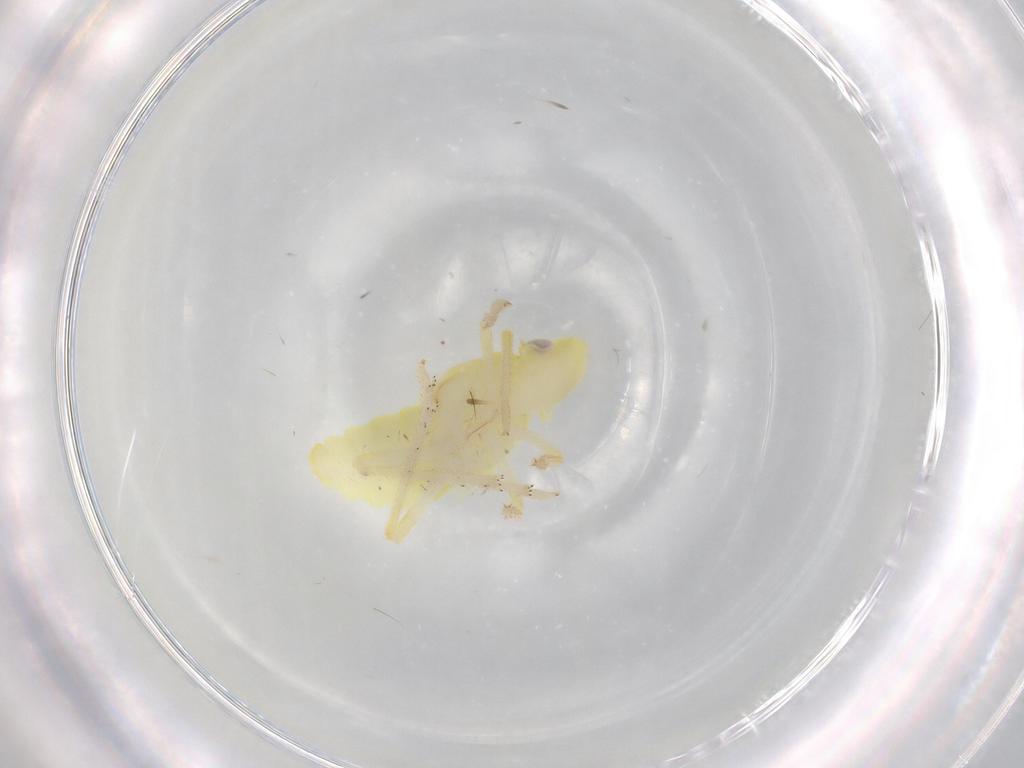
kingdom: Animalia
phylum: Arthropoda
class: Insecta
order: Hemiptera
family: Fulgoroidea_incertae_sedis
